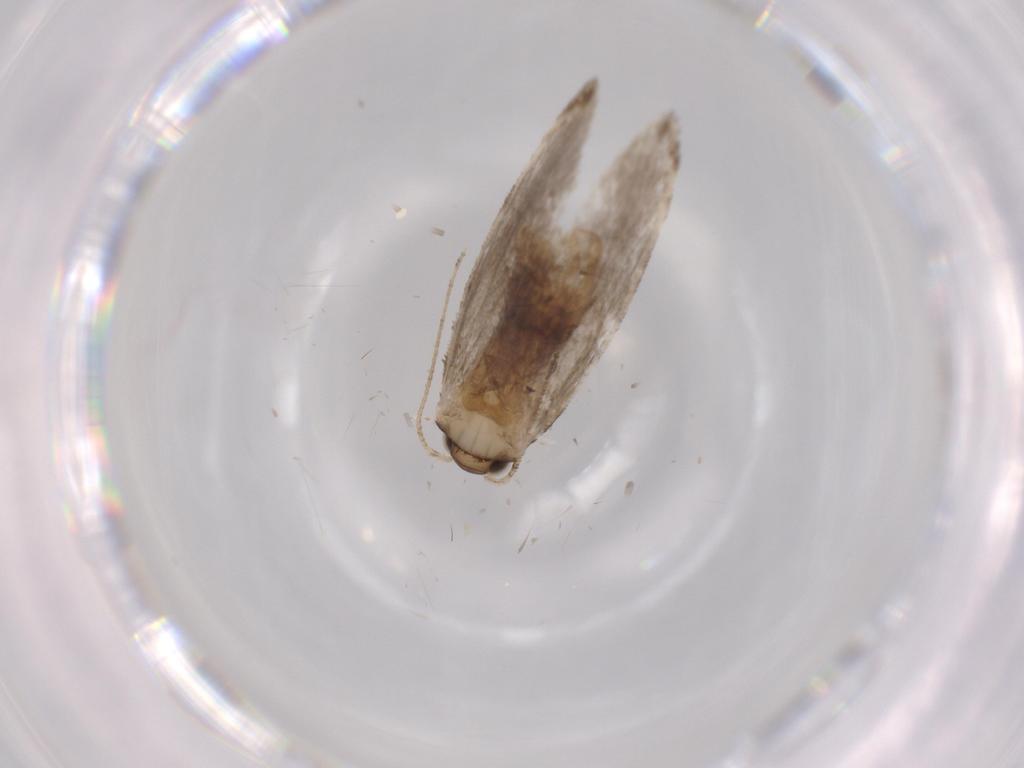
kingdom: Animalia
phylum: Arthropoda
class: Insecta
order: Lepidoptera
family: Tineidae
